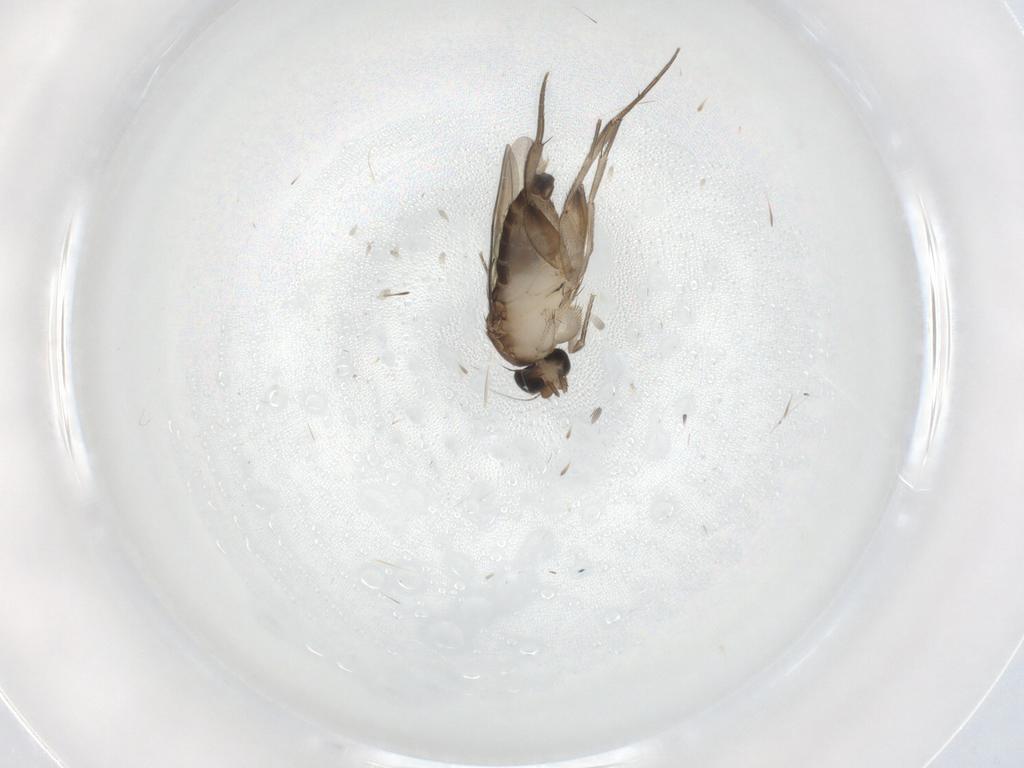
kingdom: Animalia
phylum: Arthropoda
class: Insecta
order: Diptera
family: Phoridae
